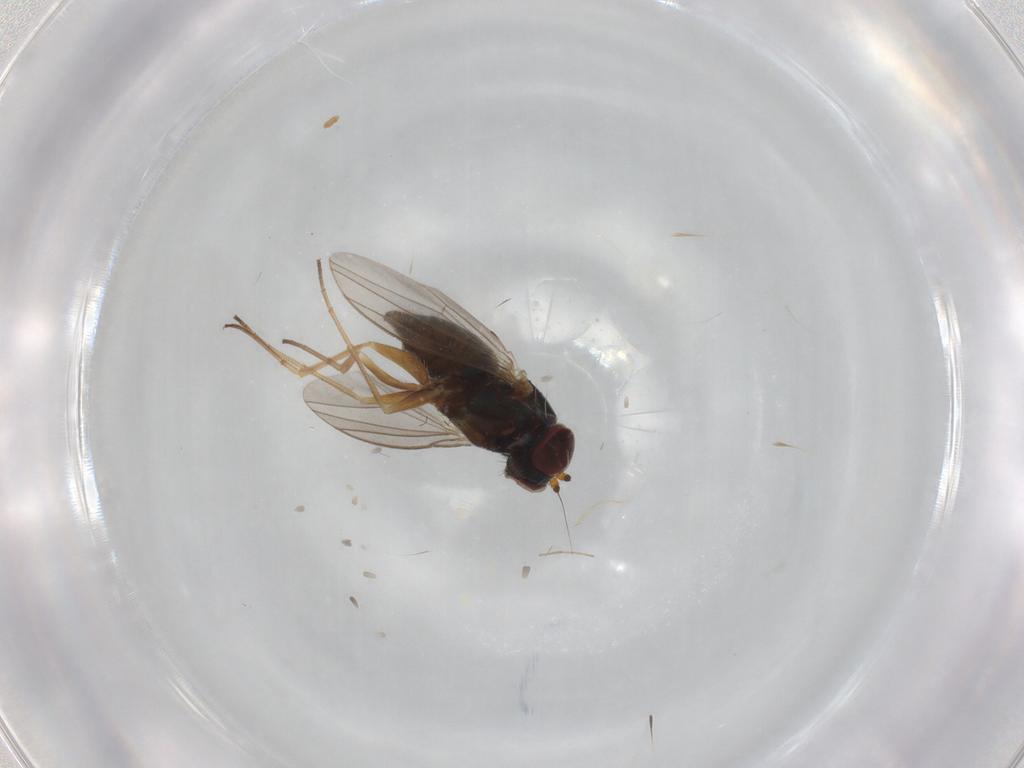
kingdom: Animalia
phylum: Arthropoda
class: Insecta
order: Diptera
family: Dolichopodidae
